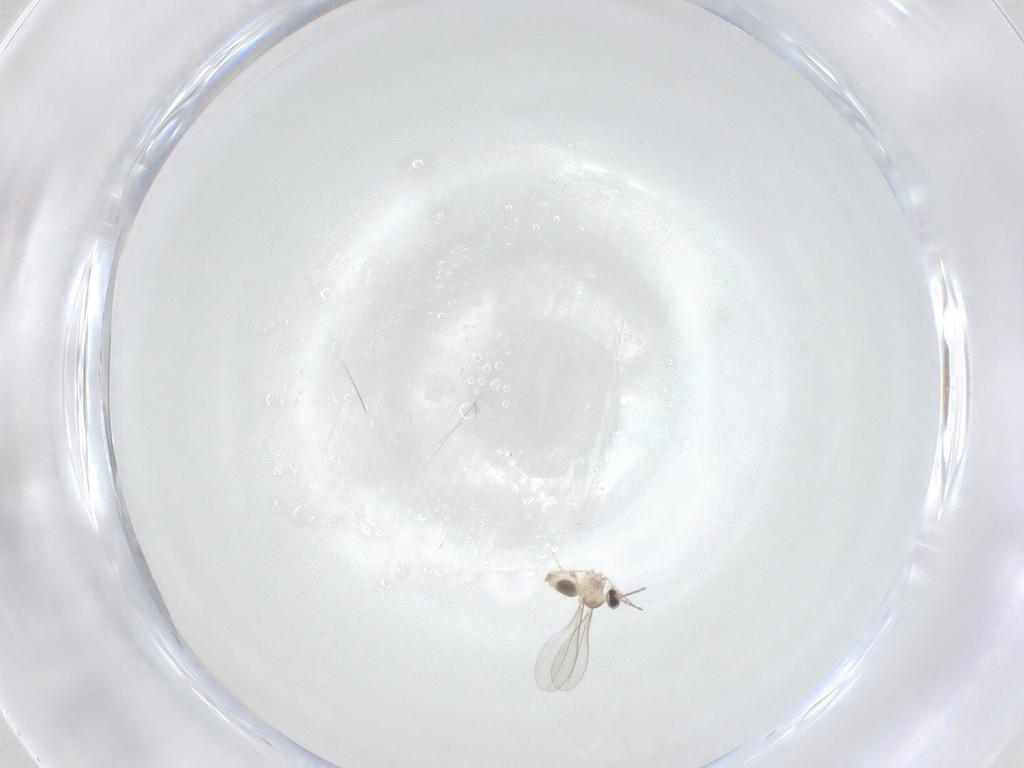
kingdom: Animalia
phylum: Arthropoda
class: Insecta
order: Diptera
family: Cecidomyiidae
